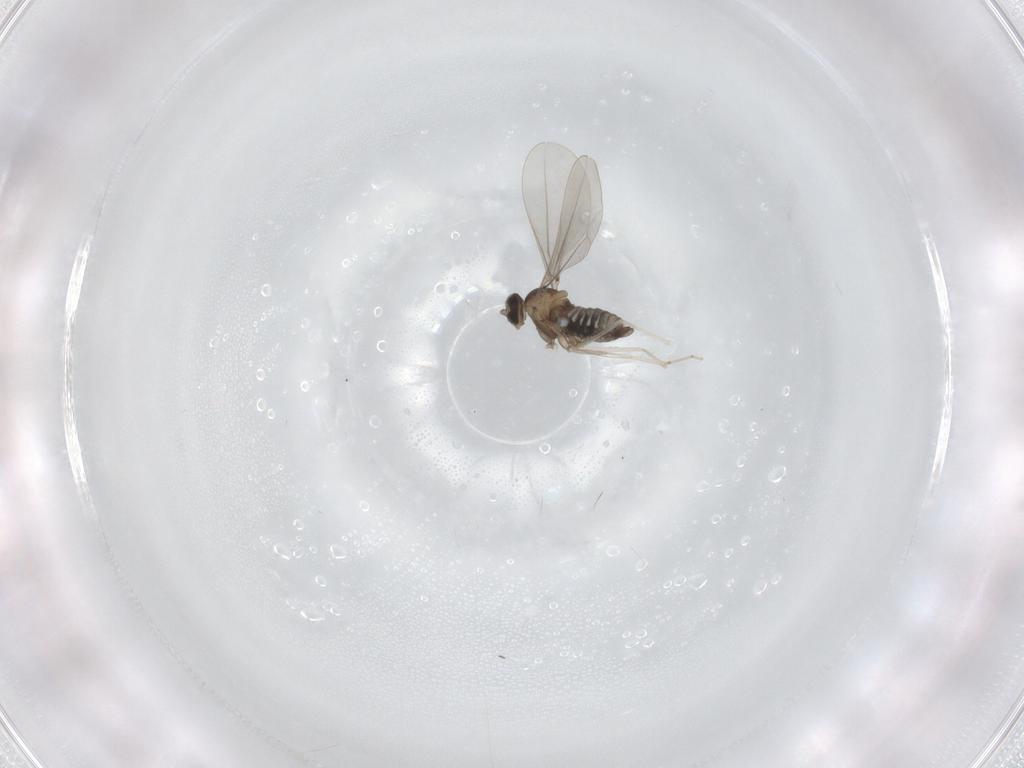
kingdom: Animalia
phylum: Arthropoda
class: Insecta
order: Diptera
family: Cecidomyiidae
